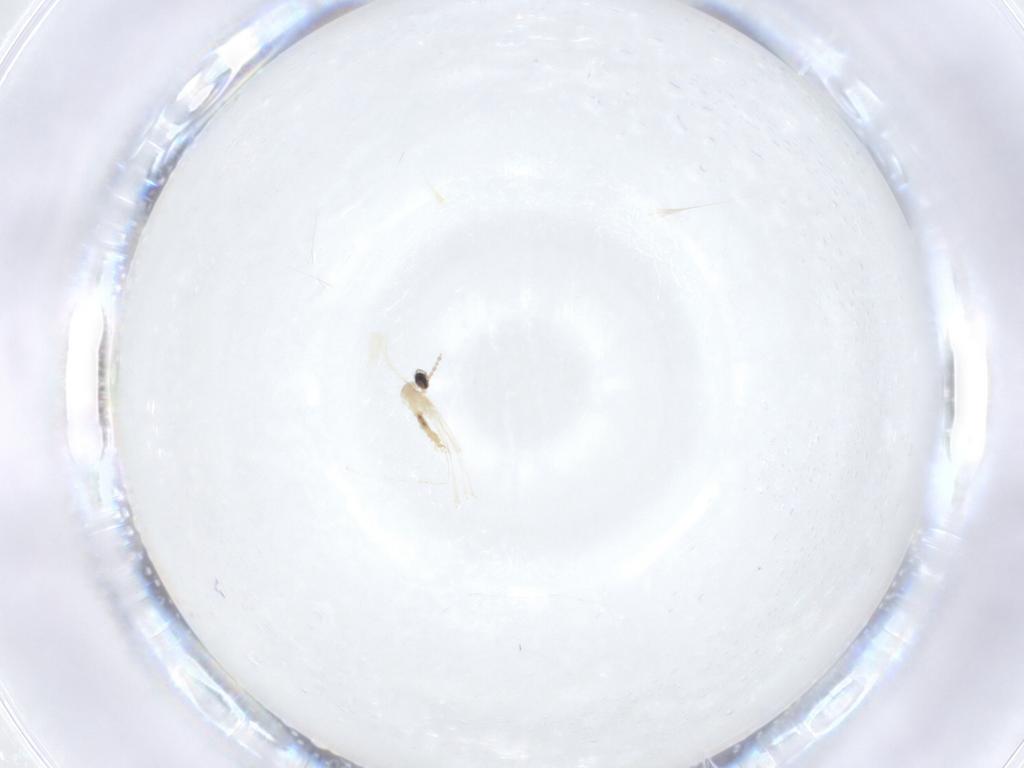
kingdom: Animalia
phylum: Arthropoda
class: Insecta
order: Diptera
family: Cecidomyiidae
